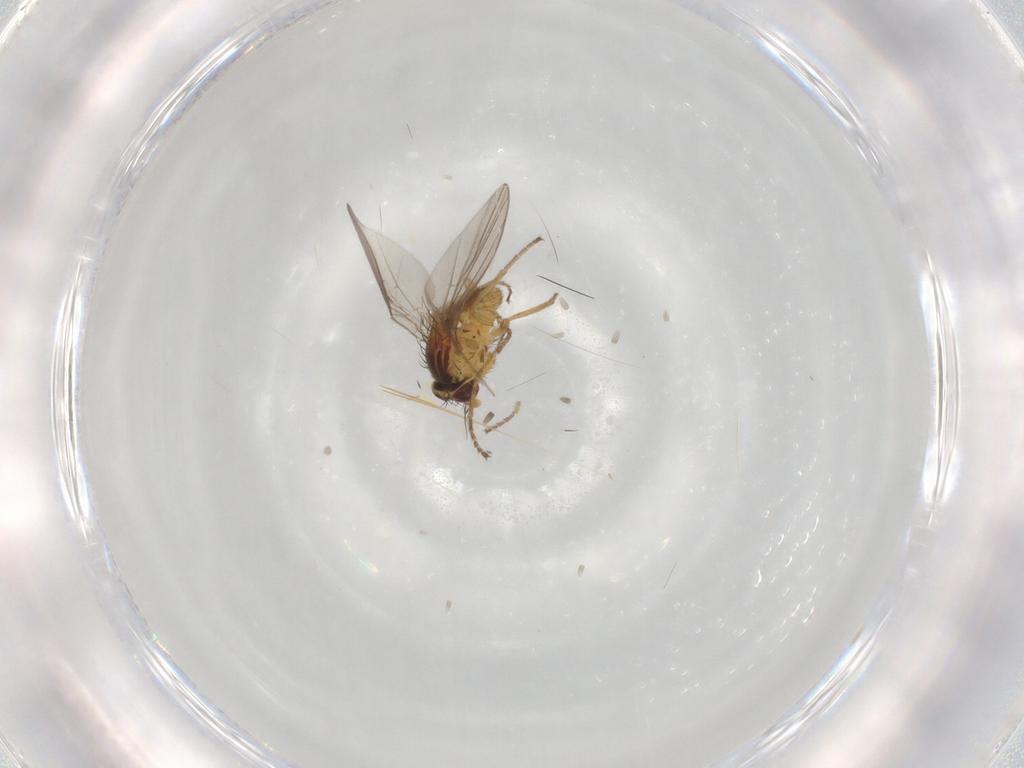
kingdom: Animalia
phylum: Arthropoda
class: Insecta
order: Diptera
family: Agromyzidae
